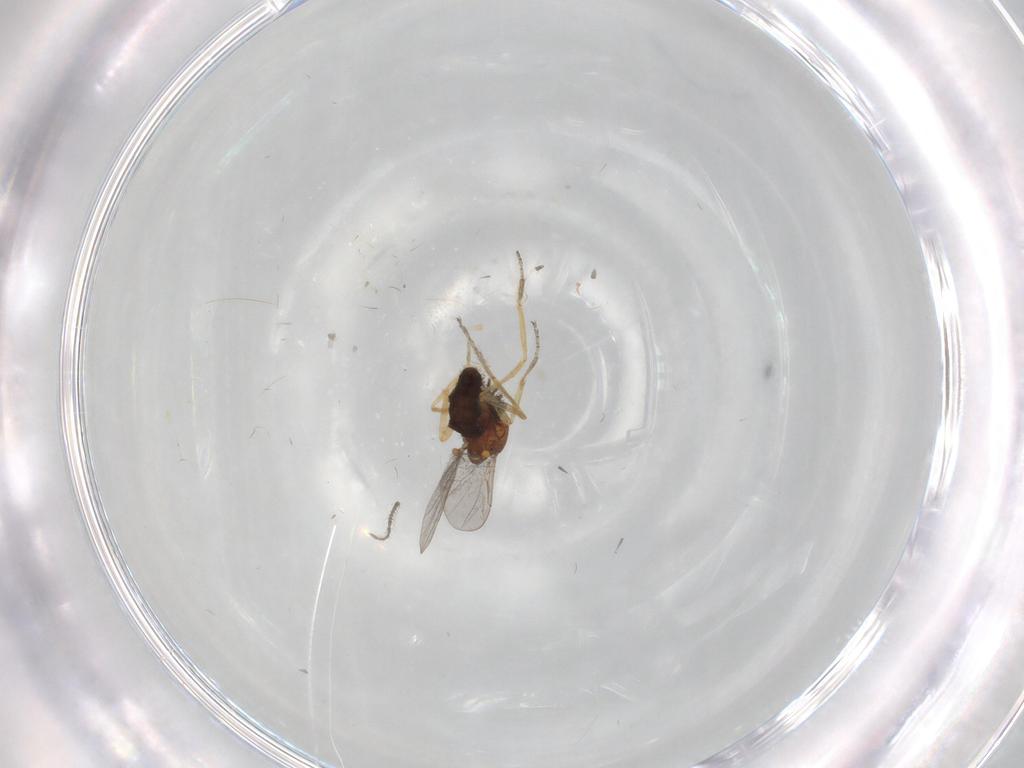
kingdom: Animalia
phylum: Arthropoda
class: Insecta
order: Diptera
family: Ceratopogonidae
